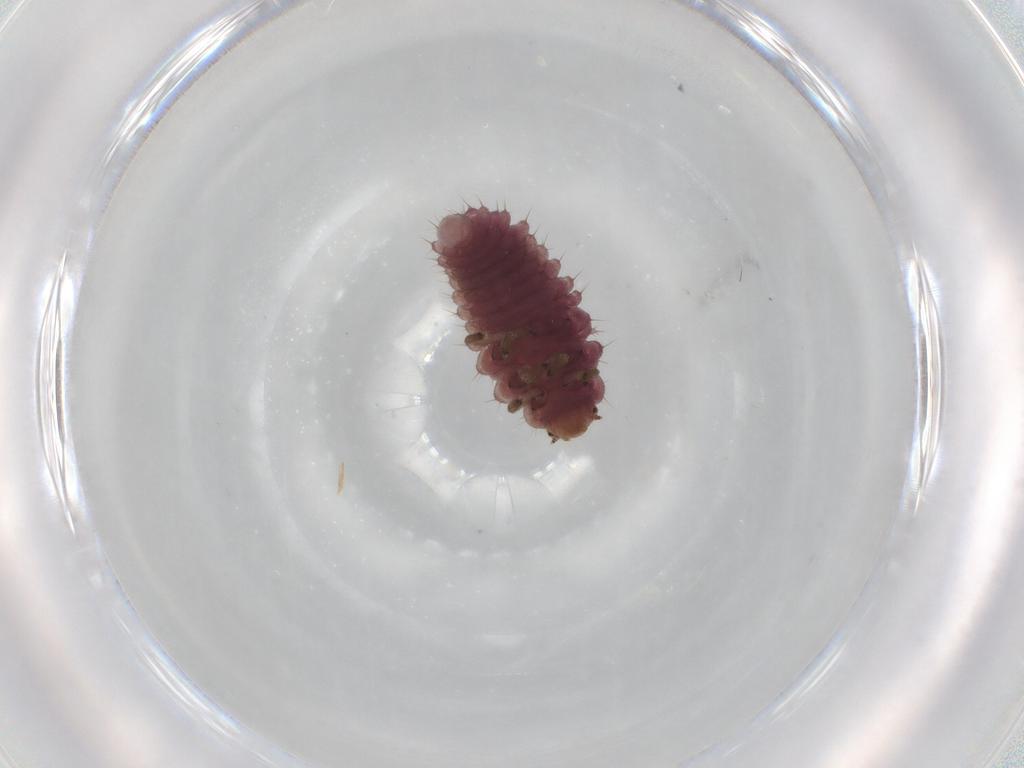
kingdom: Animalia
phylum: Arthropoda
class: Insecta
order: Coleoptera
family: Coccinellidae
